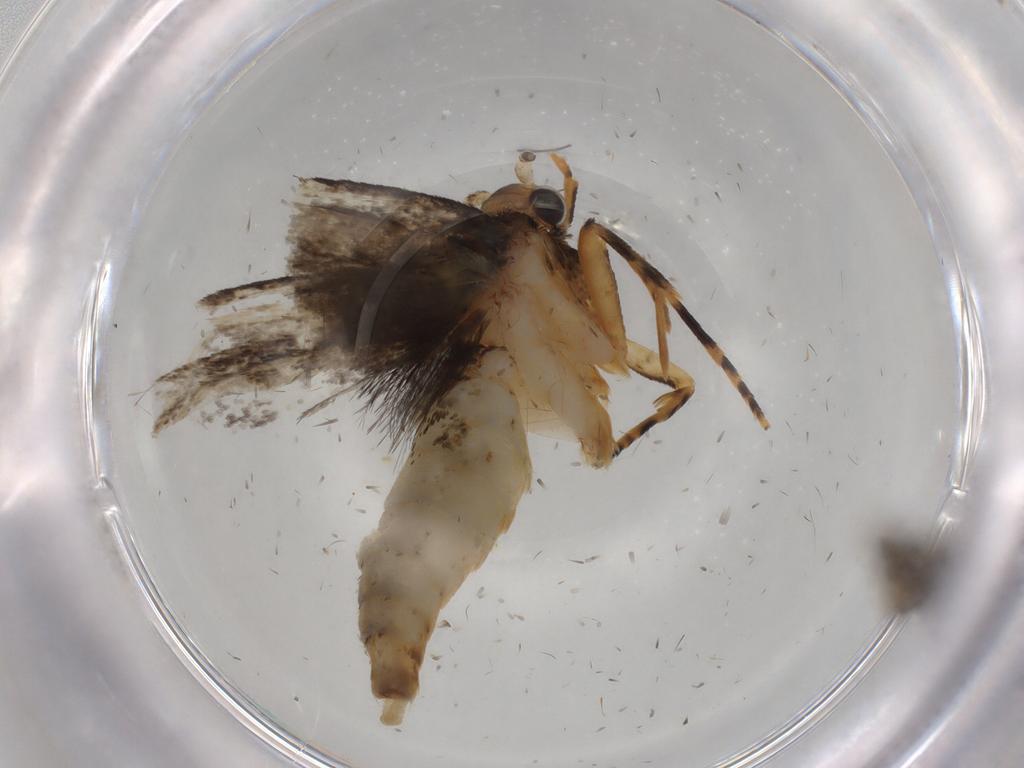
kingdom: Animalia
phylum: Arthropoda
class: Insecta
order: Lepidoptera
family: Tineidae
